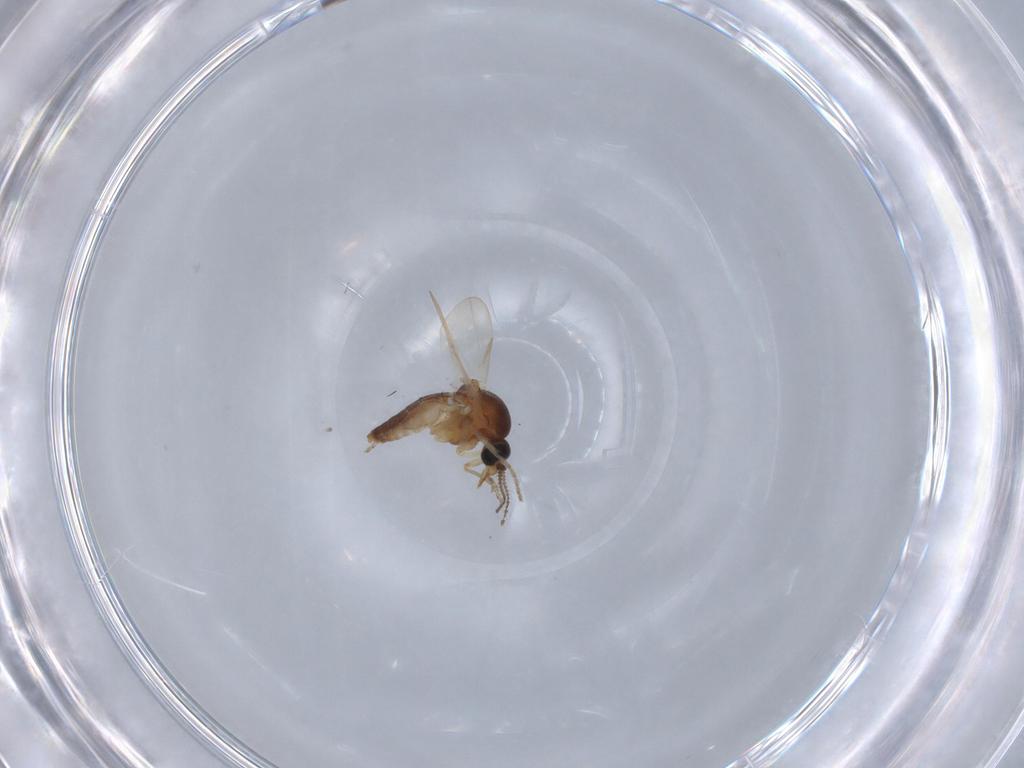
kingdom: Animalia
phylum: Arthropoda
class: Insecta
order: Diptera
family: Ceratopogonidae
